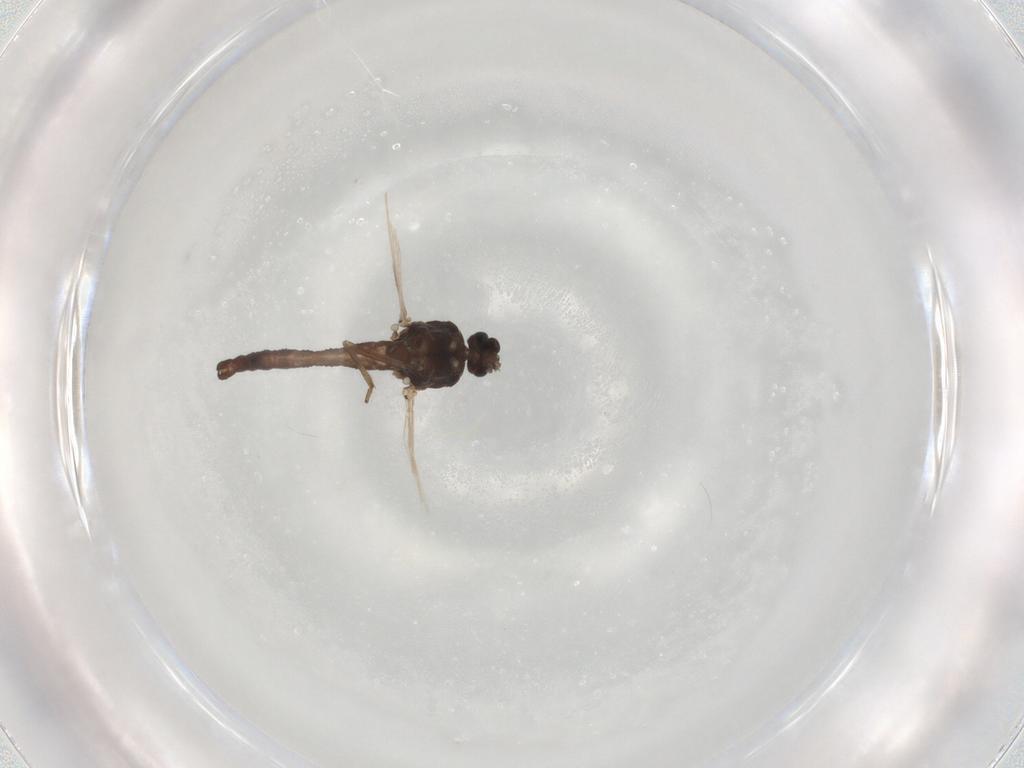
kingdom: Animalia
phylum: Arthropoda
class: Insecta
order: Diptera
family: Ceratopogonidae
